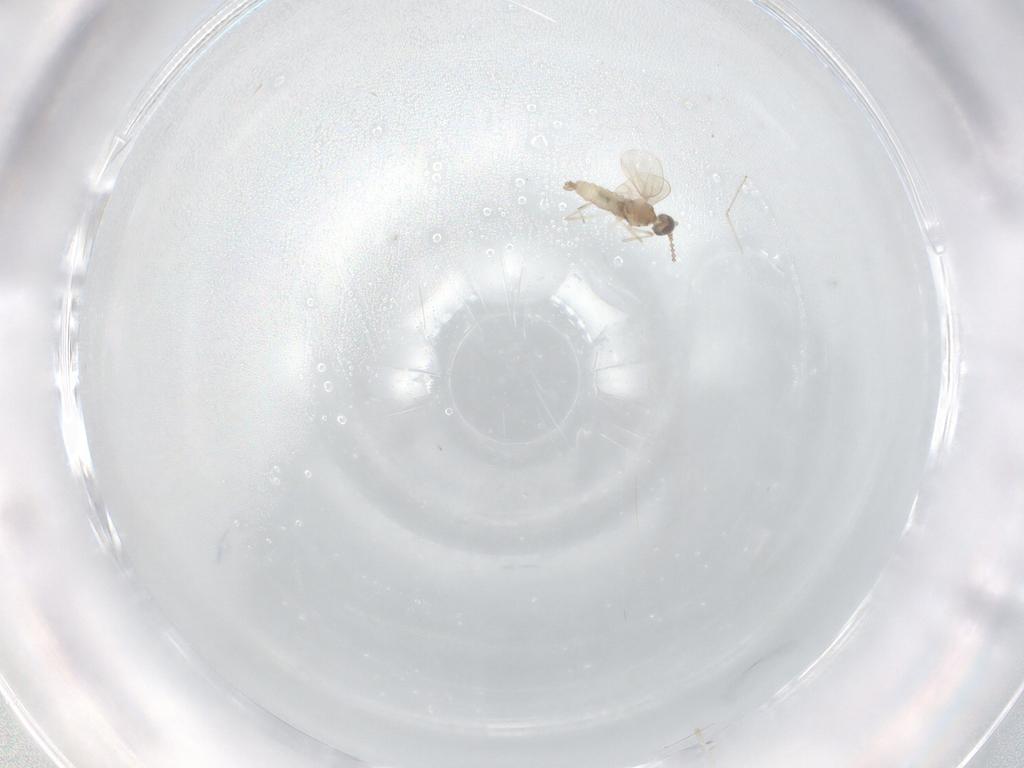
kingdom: Animalia
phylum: Arthropoda
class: Insecta
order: Diptera
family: Cecidomyiidae
